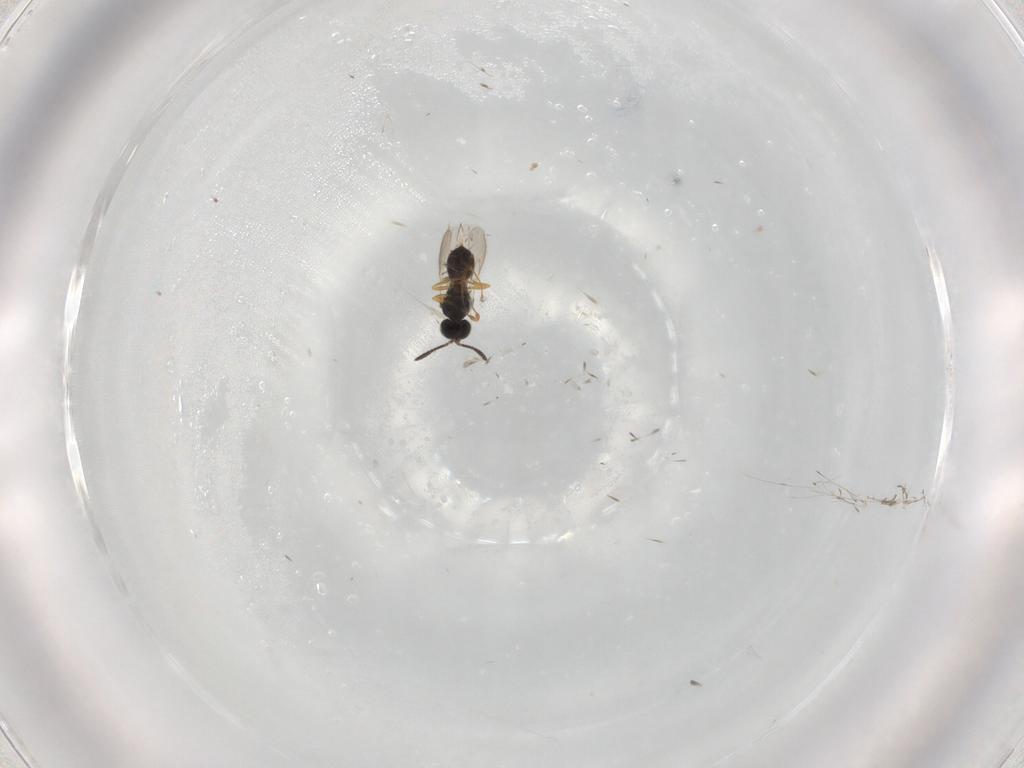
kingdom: Animalia
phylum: Arthropoda
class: Insecta
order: Hymenoptera
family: Scelionidae
